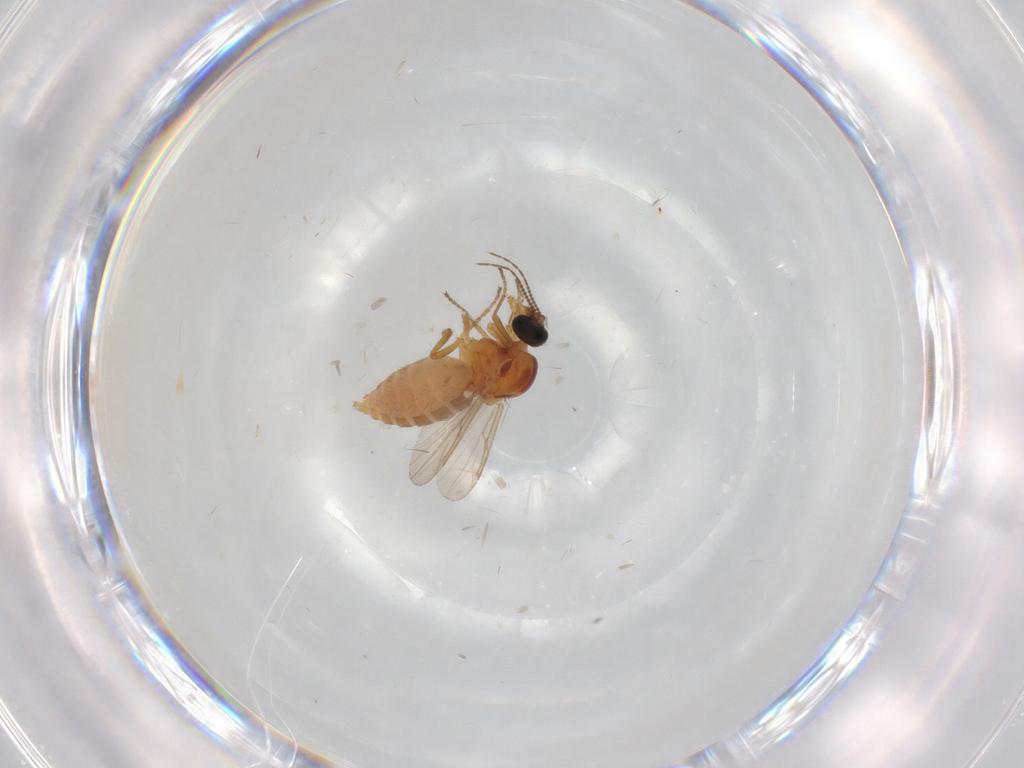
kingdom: Animalia
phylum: Arthropoda
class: Insecta
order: Diptera
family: Ceratopogonidae
